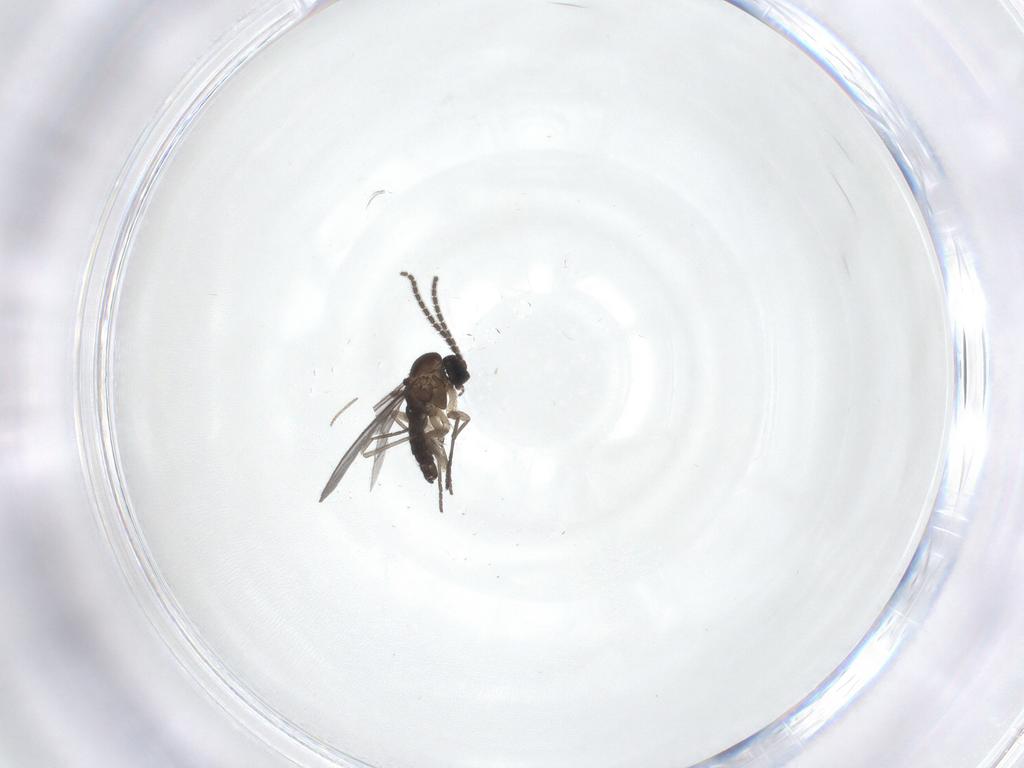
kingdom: Animalia
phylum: Arthropoda
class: Insecta
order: Diptera
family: Sciaridae
